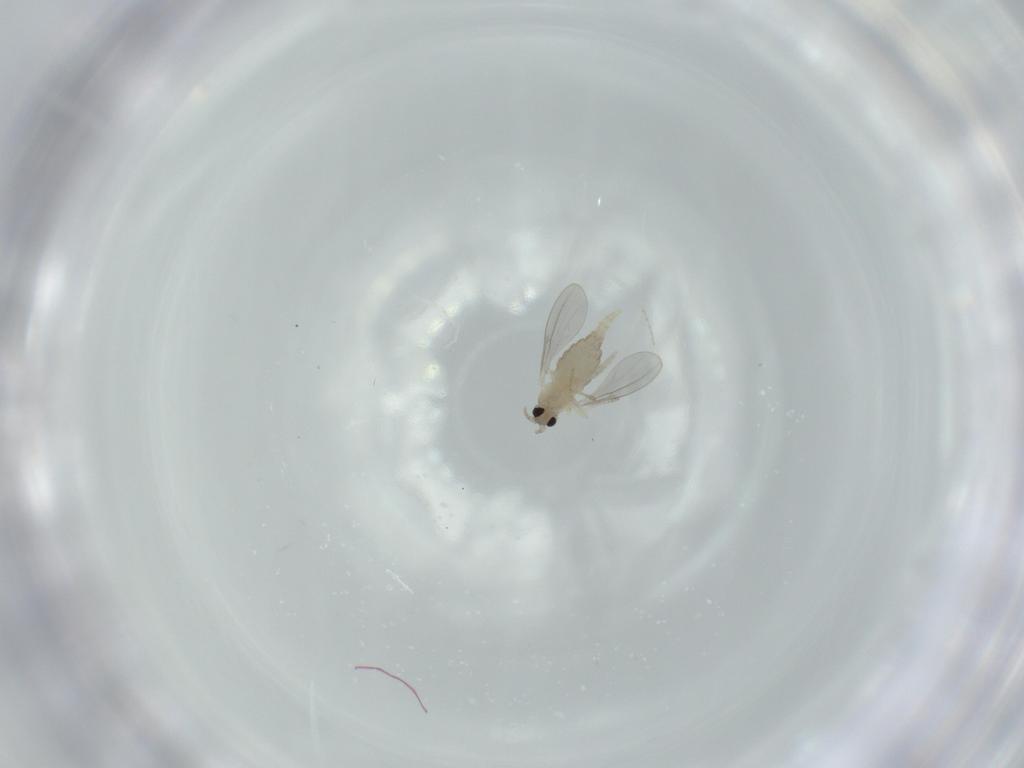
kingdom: Animalia
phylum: Arthropoda
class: Insecta
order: Diptera
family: Cecidomyiidae
